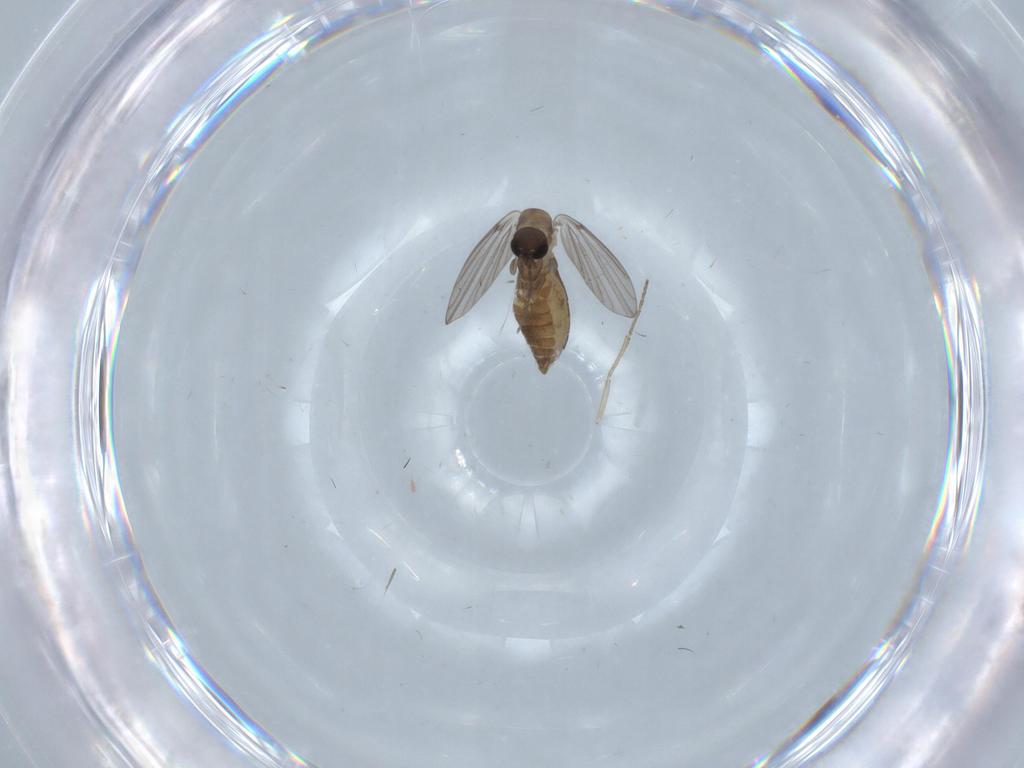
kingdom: Animalia
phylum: Arthropoda
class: Insecta
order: Diptera
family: Psychodidae
